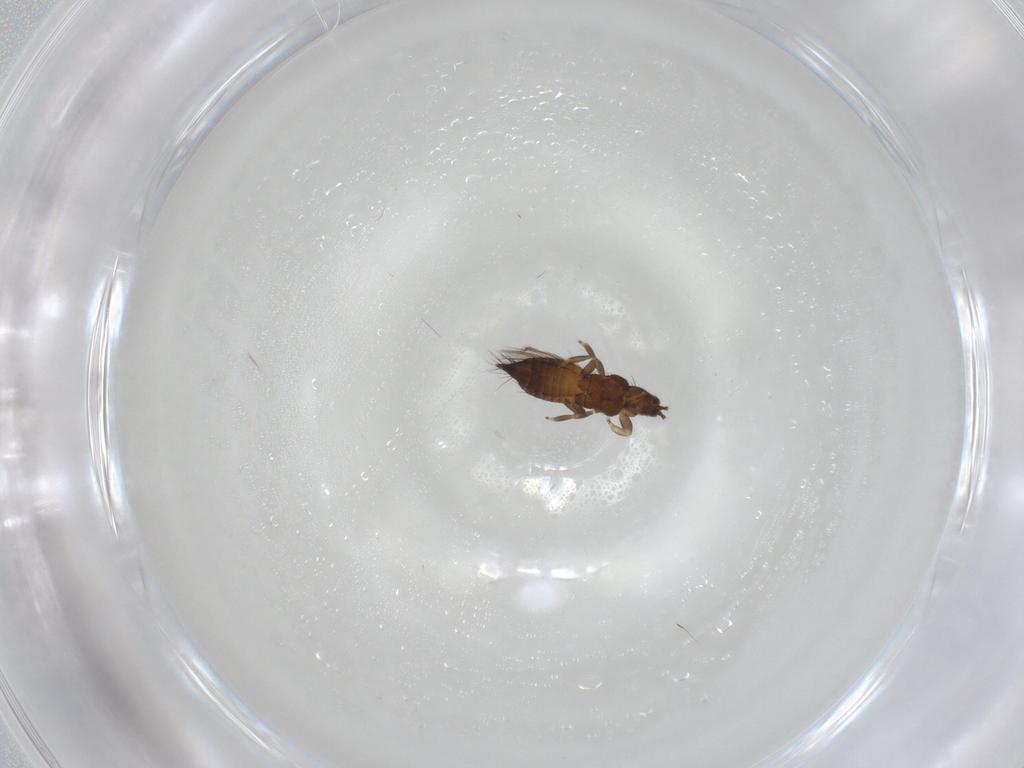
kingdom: Animalia
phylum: Arthropoda
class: Insecta
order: Thysanoptera
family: Thripidae
